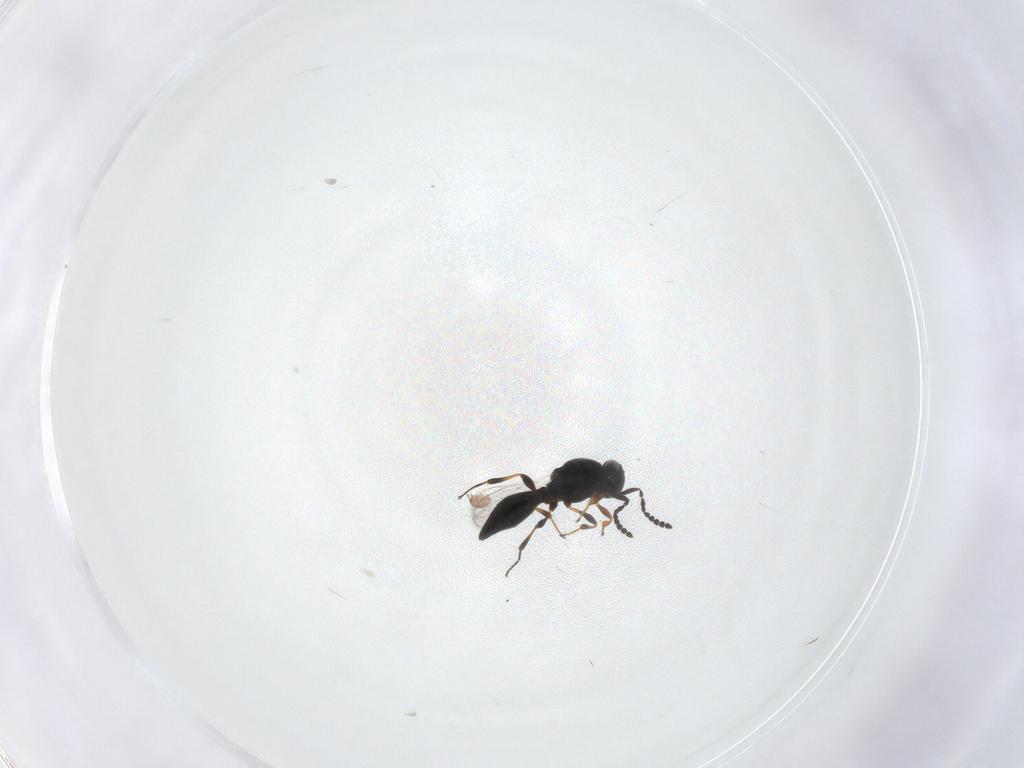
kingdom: Animalia
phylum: Arthropoda
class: Insecta
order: Hymenoptera
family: Platygastridae
